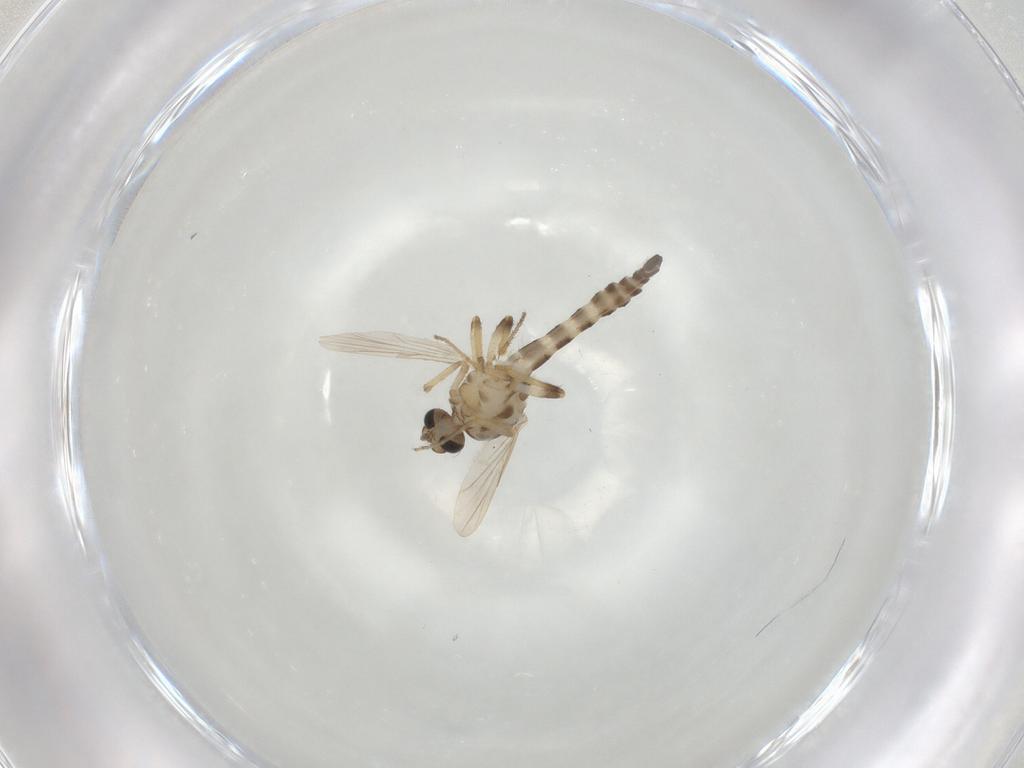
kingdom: Animalia
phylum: Arthropoda
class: Insecta
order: Diptera
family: Ceratopogonidae
